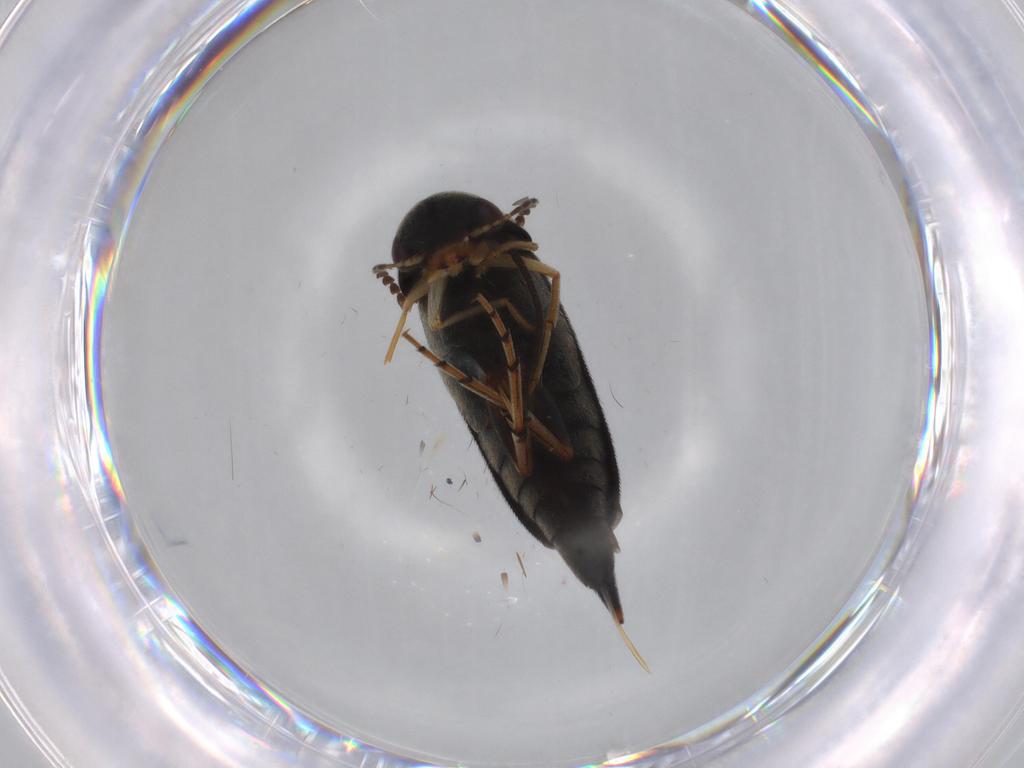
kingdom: Animalia
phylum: Arthropoda
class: Insecta
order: Coleoptera
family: Mordellidae
